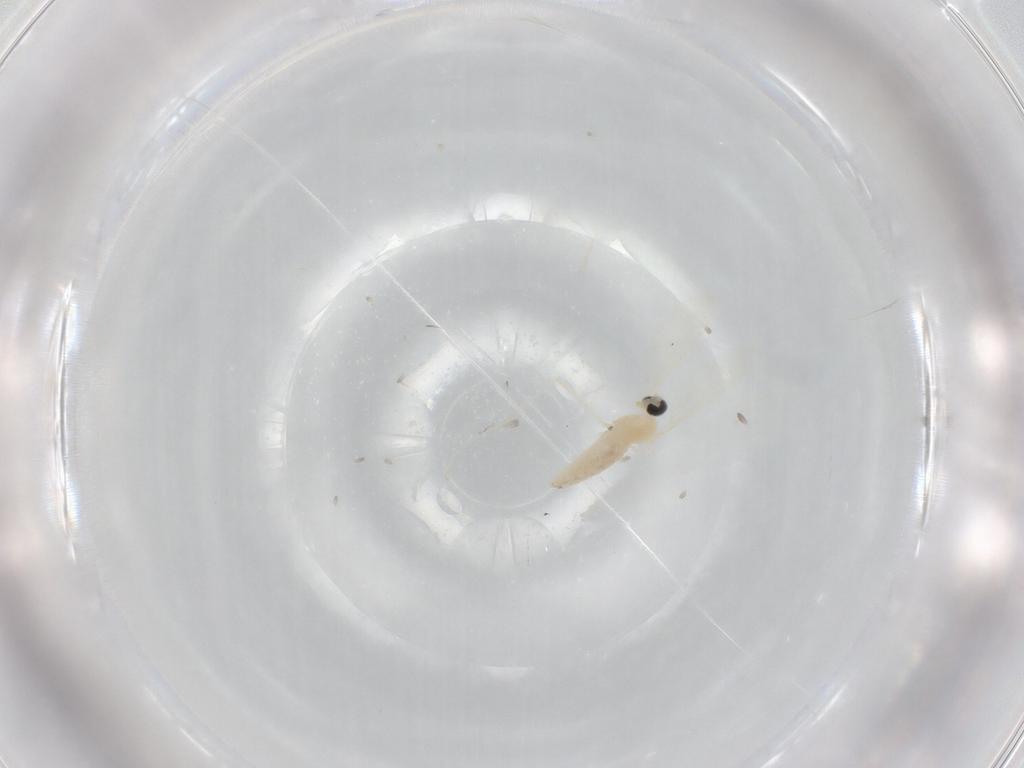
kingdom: Animalia
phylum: Arthropoda
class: Insecta
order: Diptera
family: Cecidomyiidae
